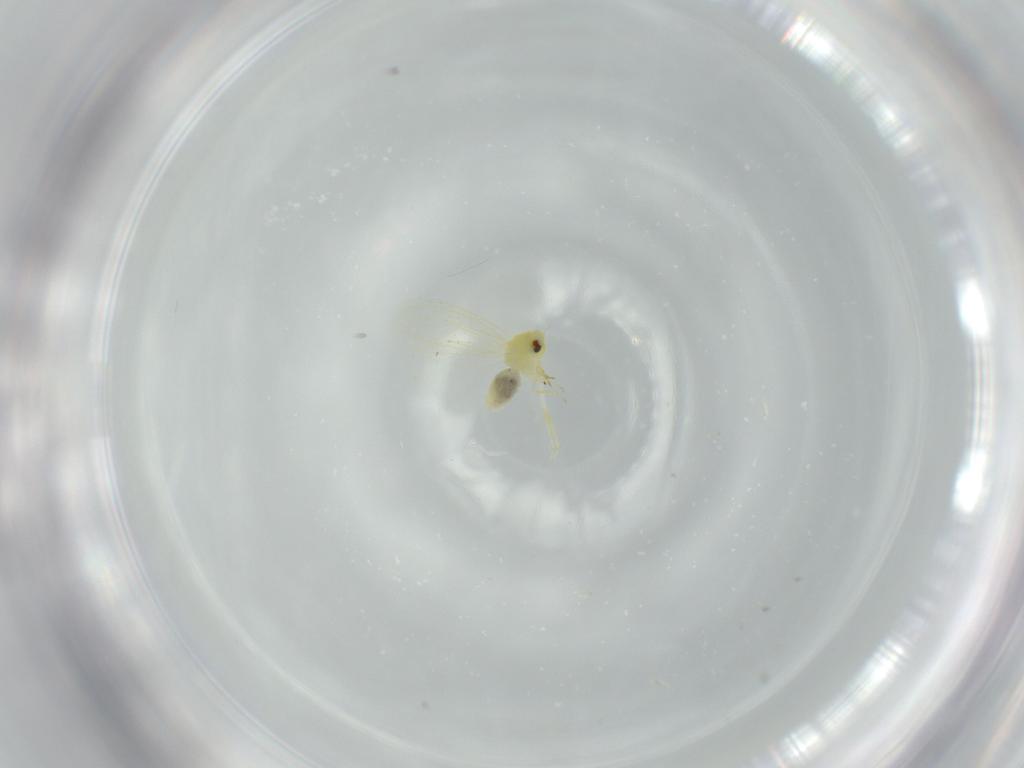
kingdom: Animalia
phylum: Arthropoda
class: Insecta
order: Hemiptera
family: Aleyrodidae
